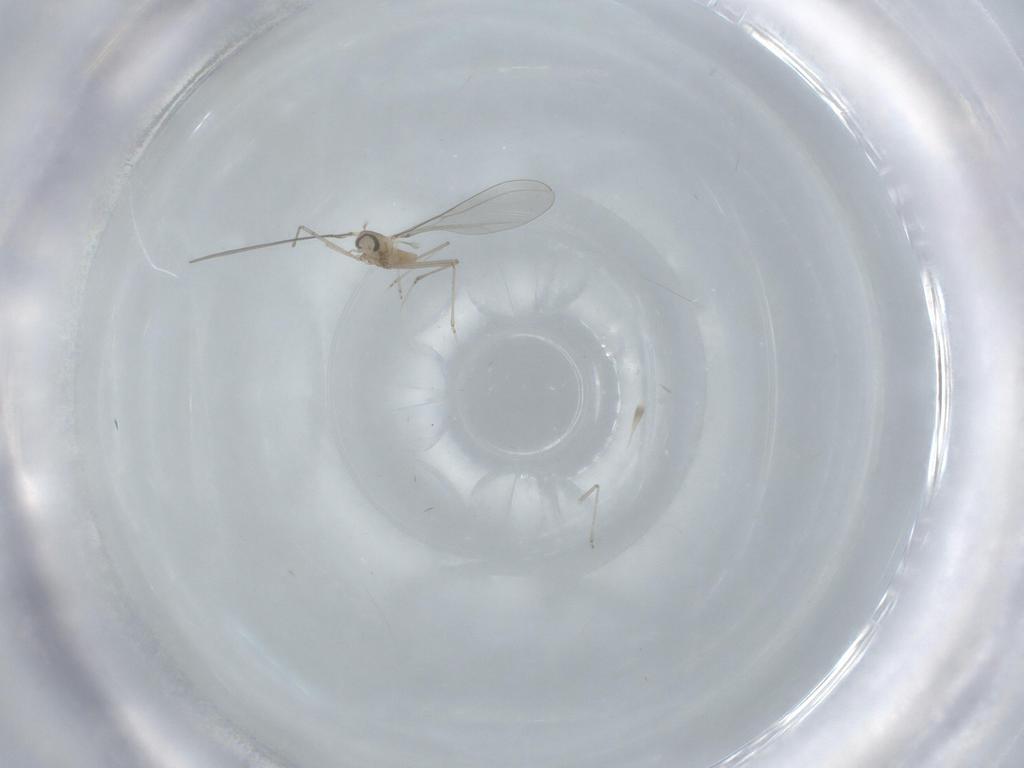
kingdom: Animalia
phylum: Arthropoda
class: Insecta
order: Diptera
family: Cecidomyiidae
